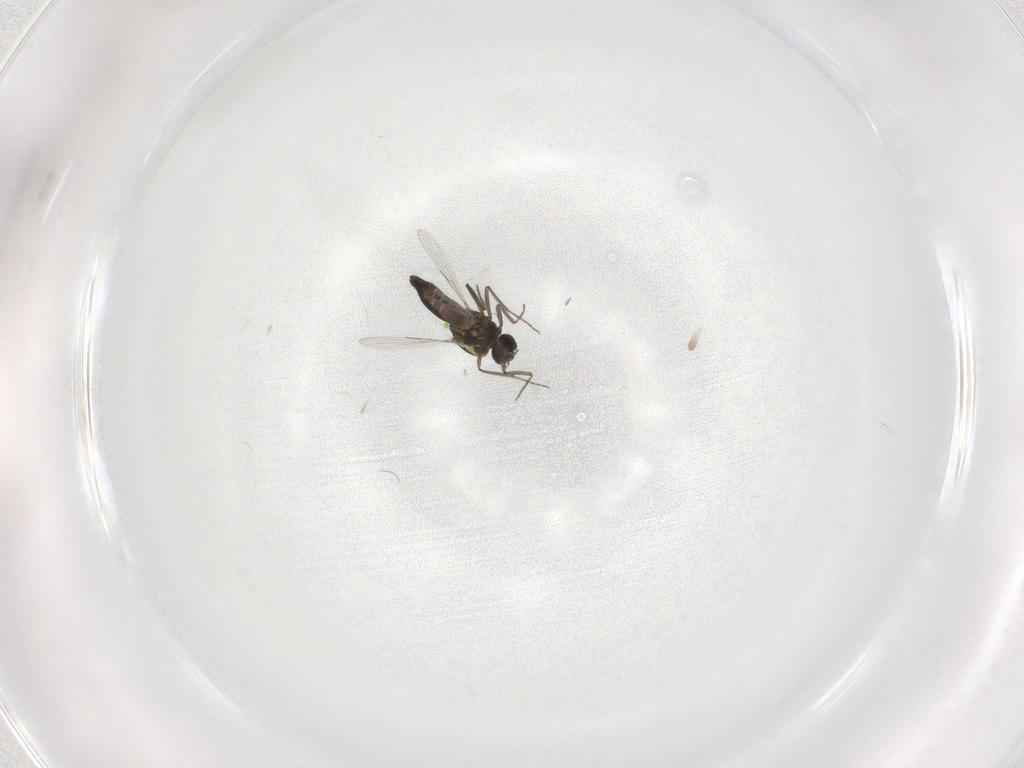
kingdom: Animalia
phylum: Arthropoda
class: Insecta
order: Diptera
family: Ceratopogonidae
